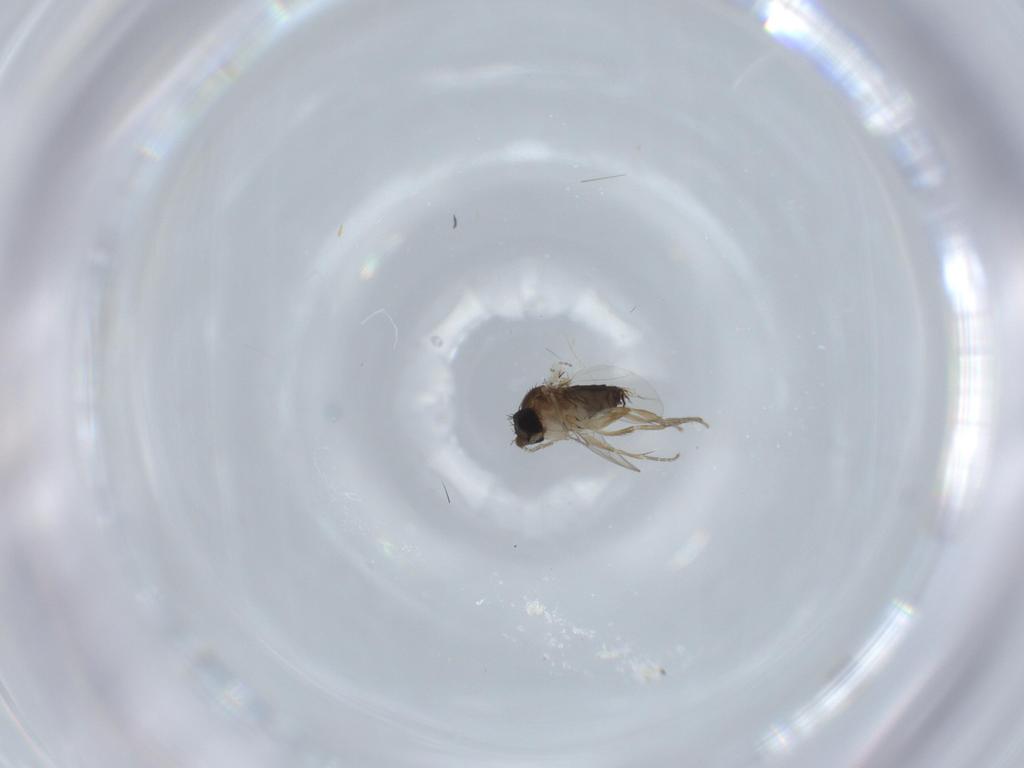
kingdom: Animalia
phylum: Arthropoda
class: Insecta
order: Diptera
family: Phoridae
